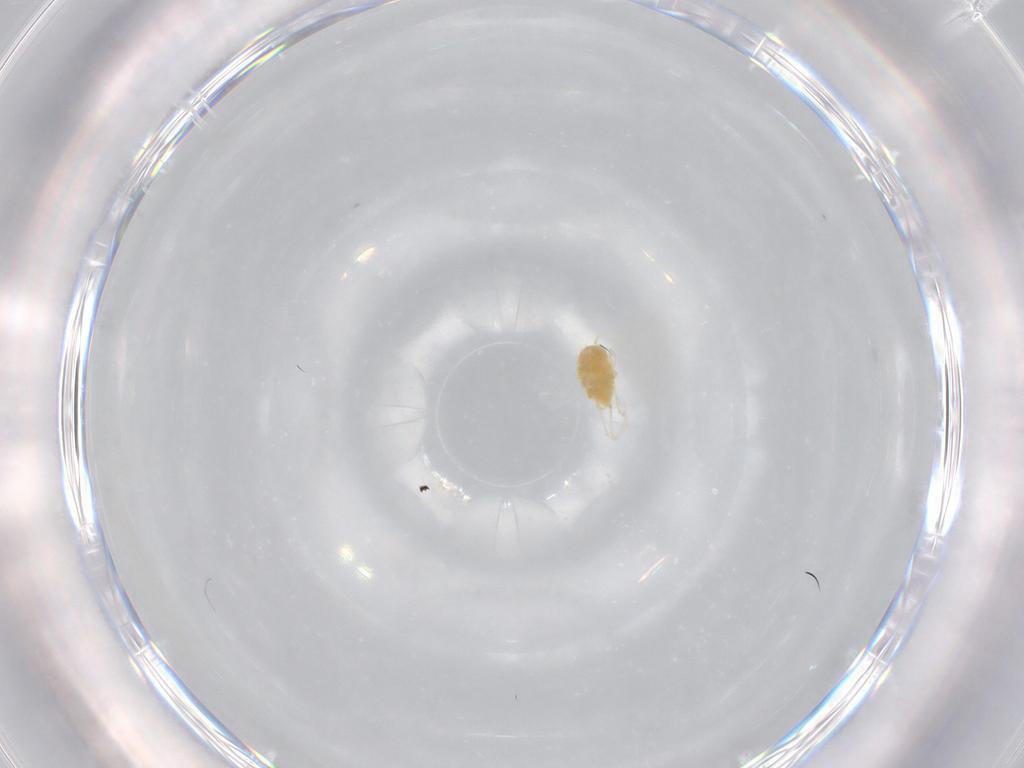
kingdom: Animalia
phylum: Arthropoda
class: Arachnida
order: Trombidiformes
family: Tetranychidae
